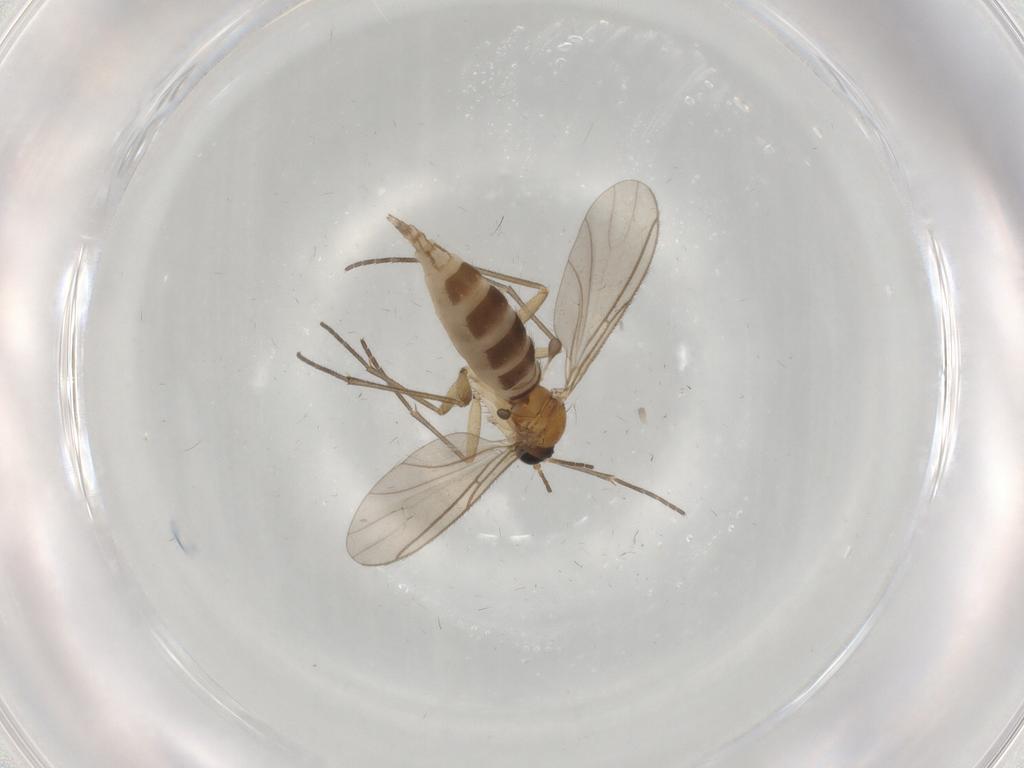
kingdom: Animalia
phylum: Arthropoda
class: Insecta
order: Diptera
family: Sciaridae
